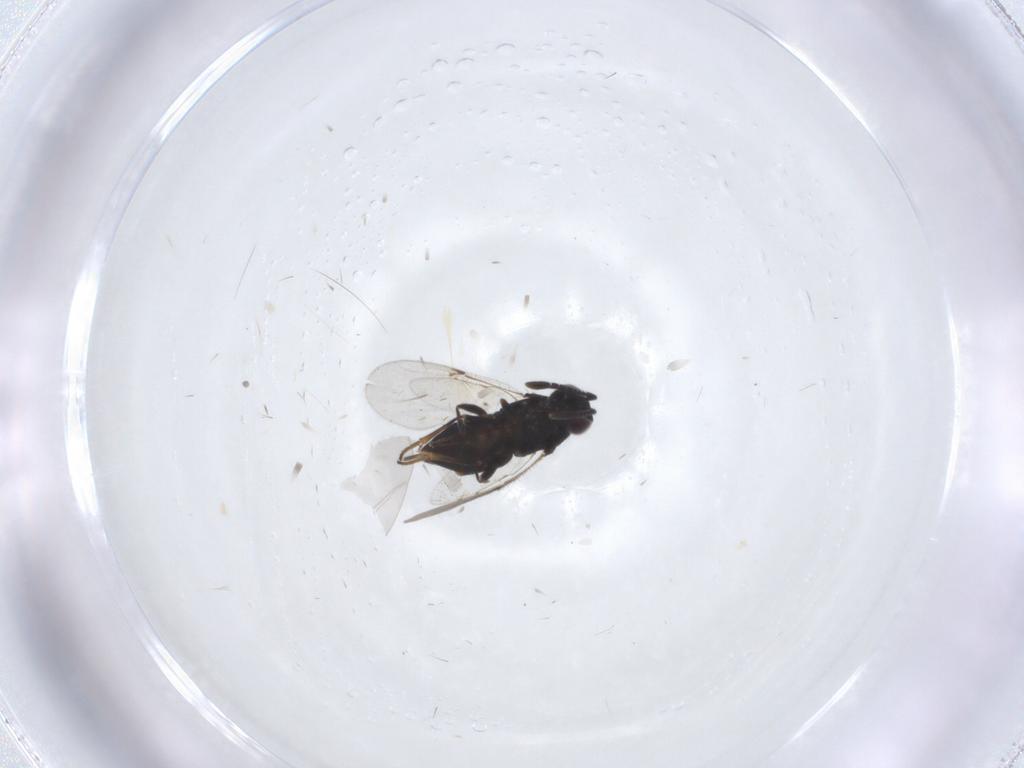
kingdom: Animalia
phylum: Arthropoda
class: Insecta
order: Hymenoptera
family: Encyrtidae
